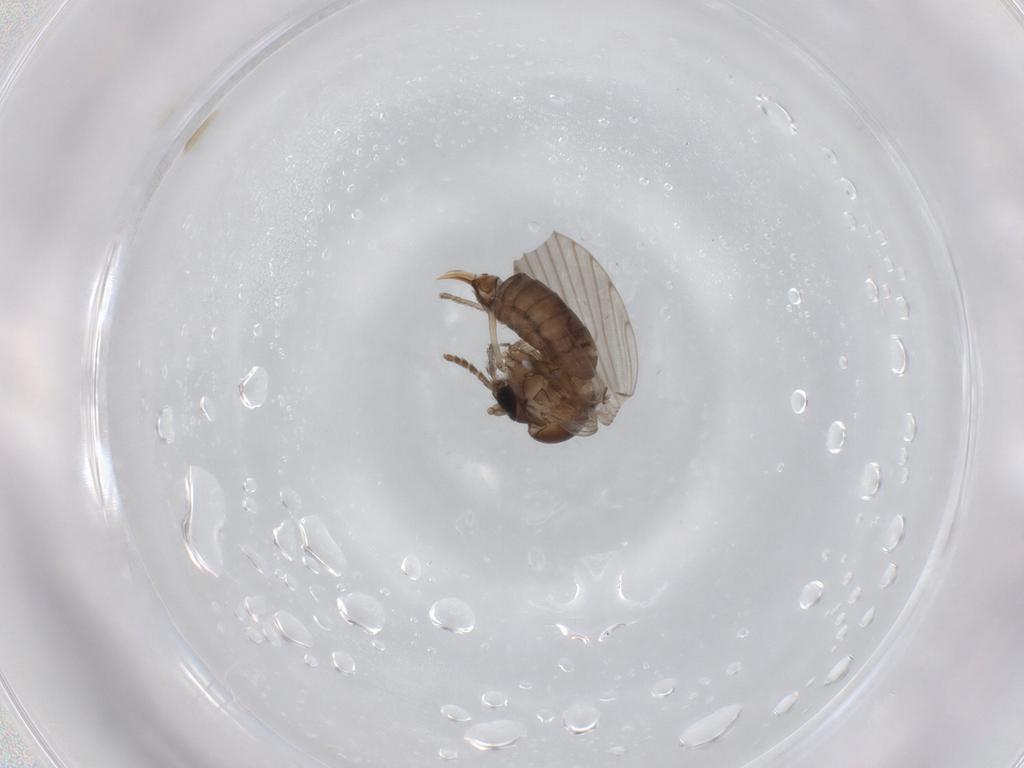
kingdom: Animalia
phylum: Arthropoda
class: Insecta
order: Diptera
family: Psychodidae
